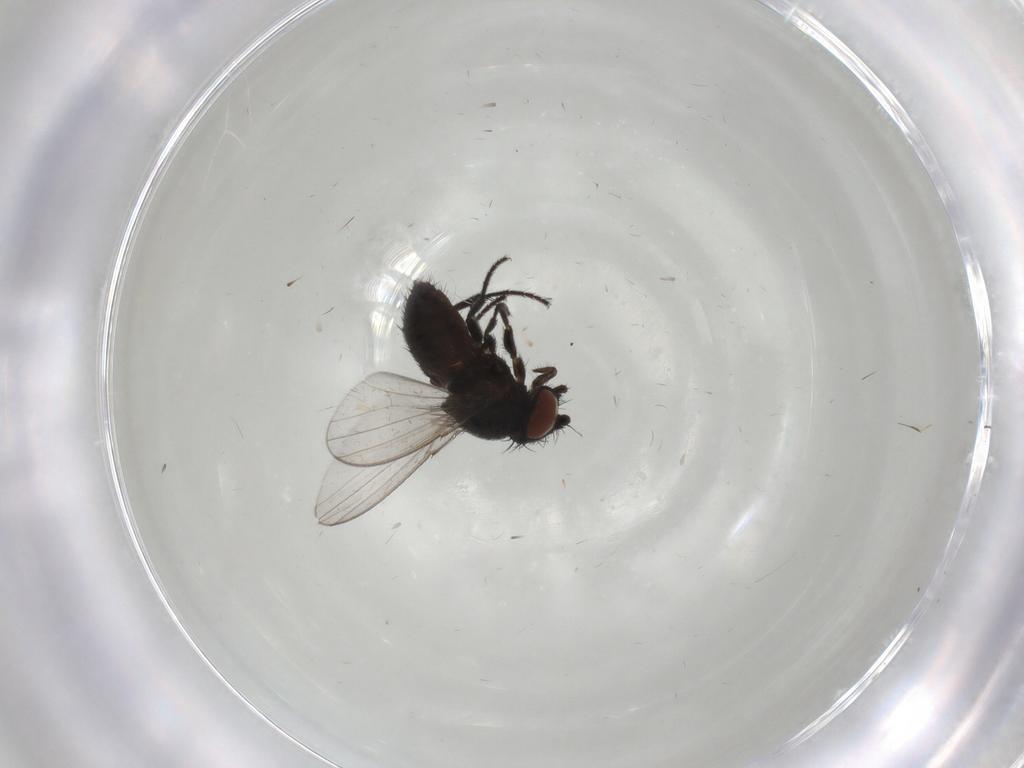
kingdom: Animalia
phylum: Arthropoda
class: Insecta
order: Diptera
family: Milichiidae
